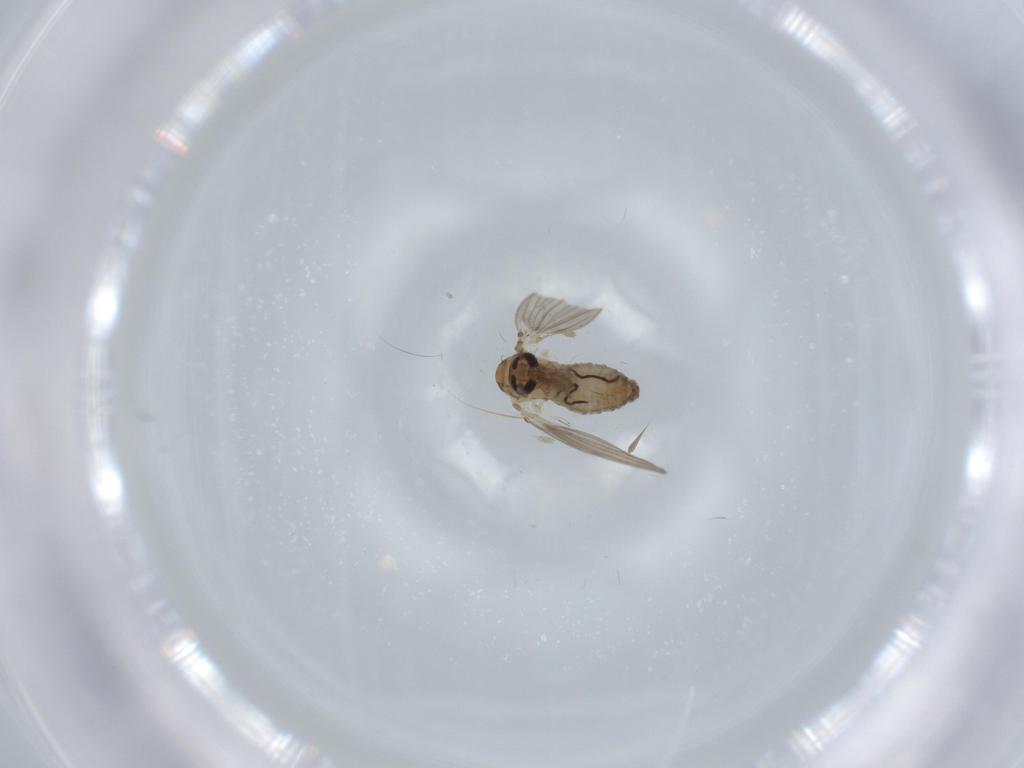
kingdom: Animalia
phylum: Arthropoda
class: Insecta
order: Diptera
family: Psychodidae
